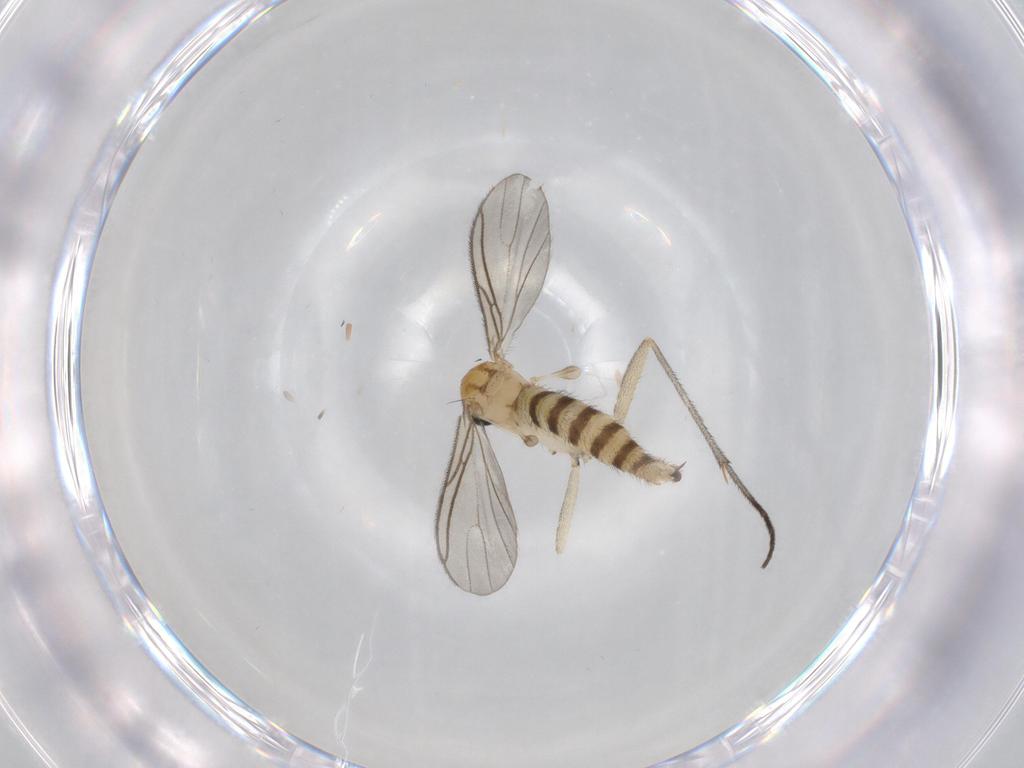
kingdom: Animalia
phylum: Arthropoda
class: Insecta
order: Diptera
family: Sciaridae
